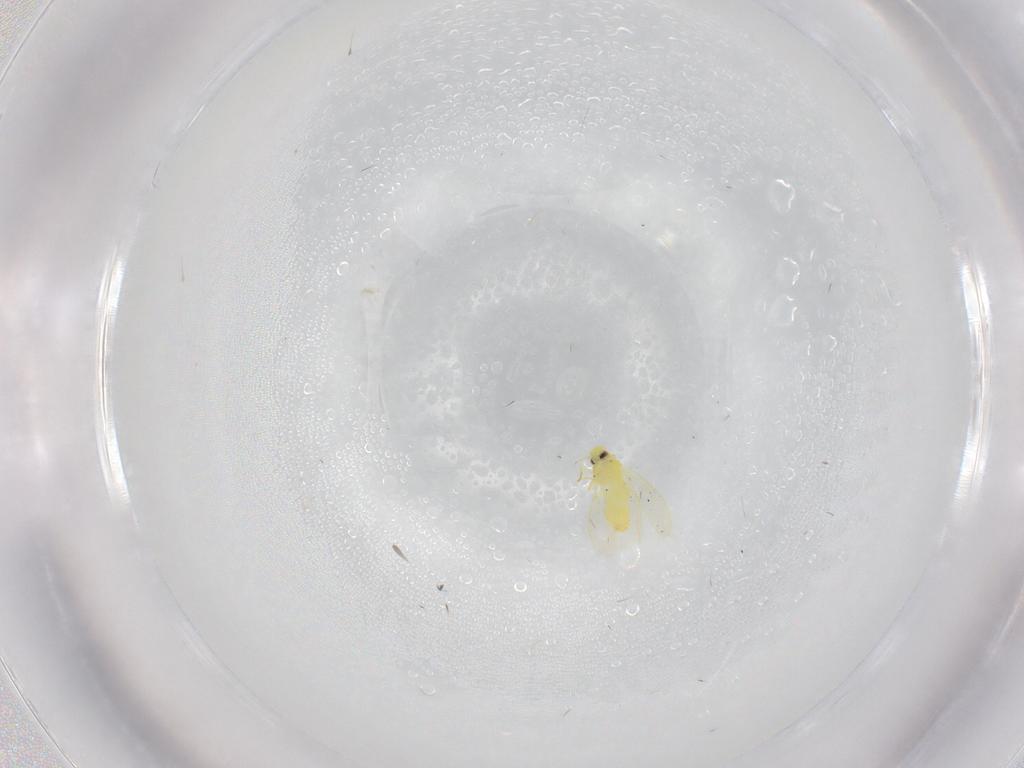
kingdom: Animalia
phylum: Arthropoda
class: Insecta
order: Hemiptera
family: Aleyrodidae
